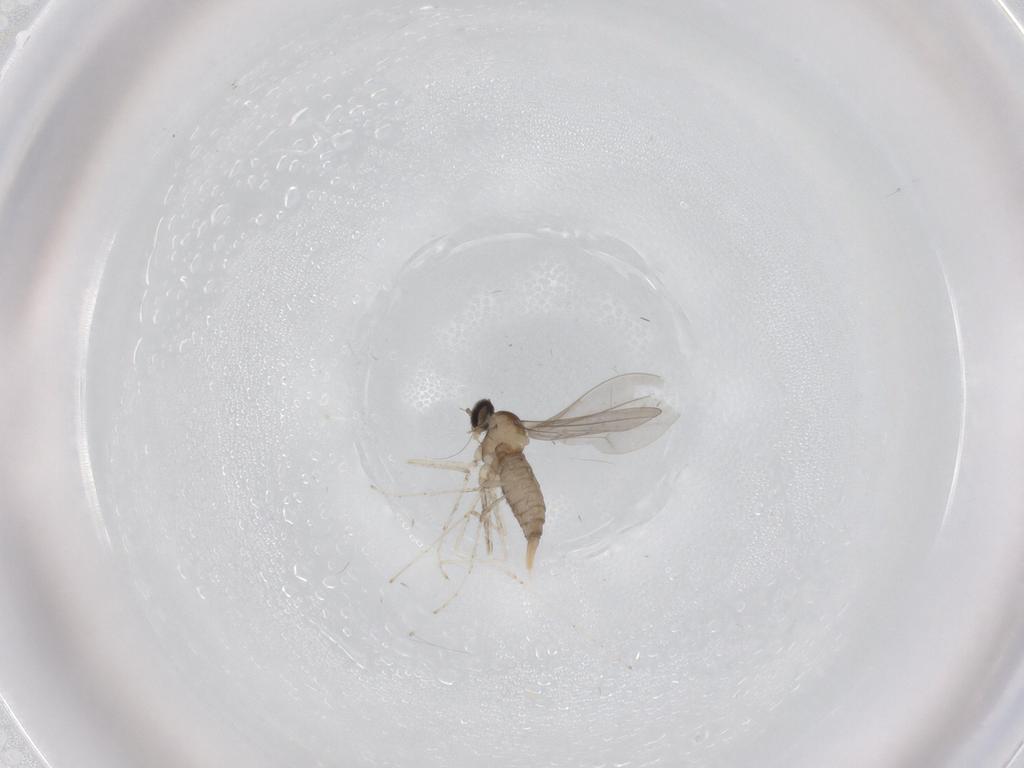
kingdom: Animalia
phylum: Arthropoda
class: Insecta
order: Diptera
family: Cecidomyiidae
